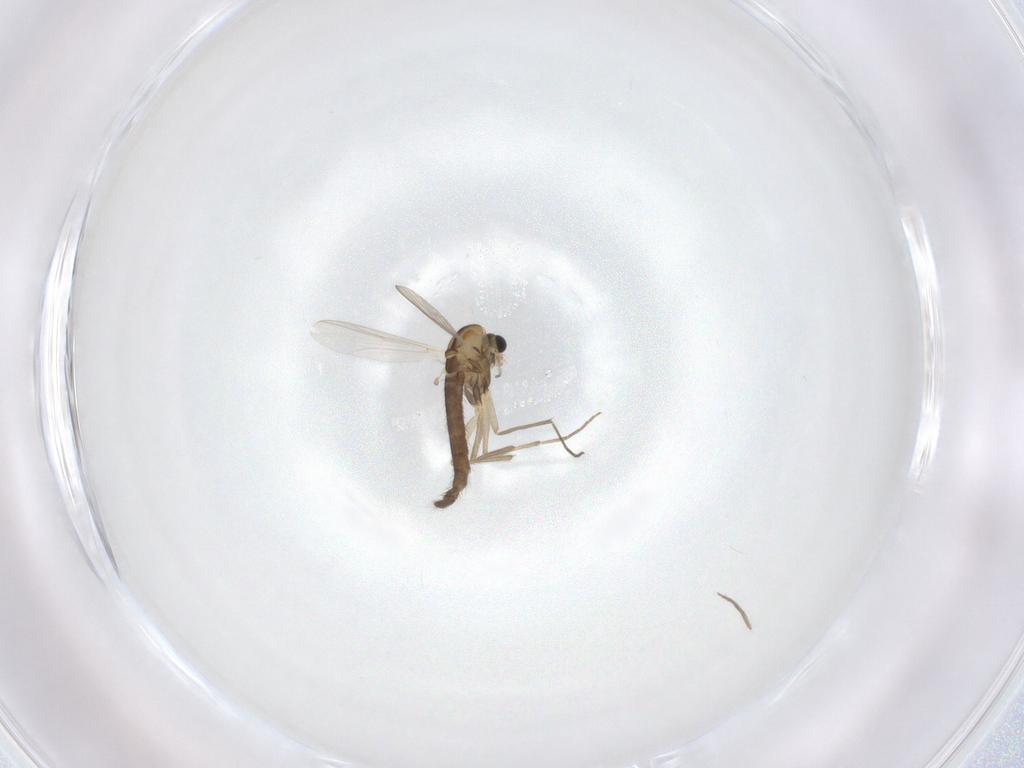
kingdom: Animalia
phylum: Arthropoda
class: Insecta
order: Diptera
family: Chironomidae
